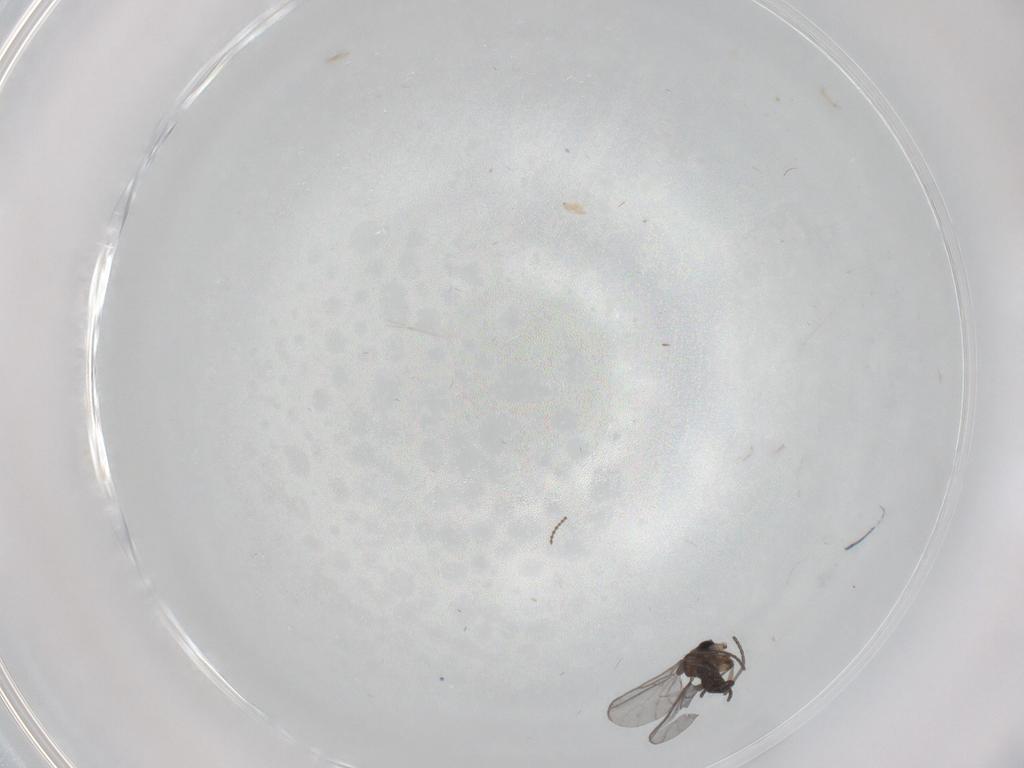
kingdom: Animalia
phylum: Arthropoda
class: Insecta
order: Diptera
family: Ceratopogonidae
